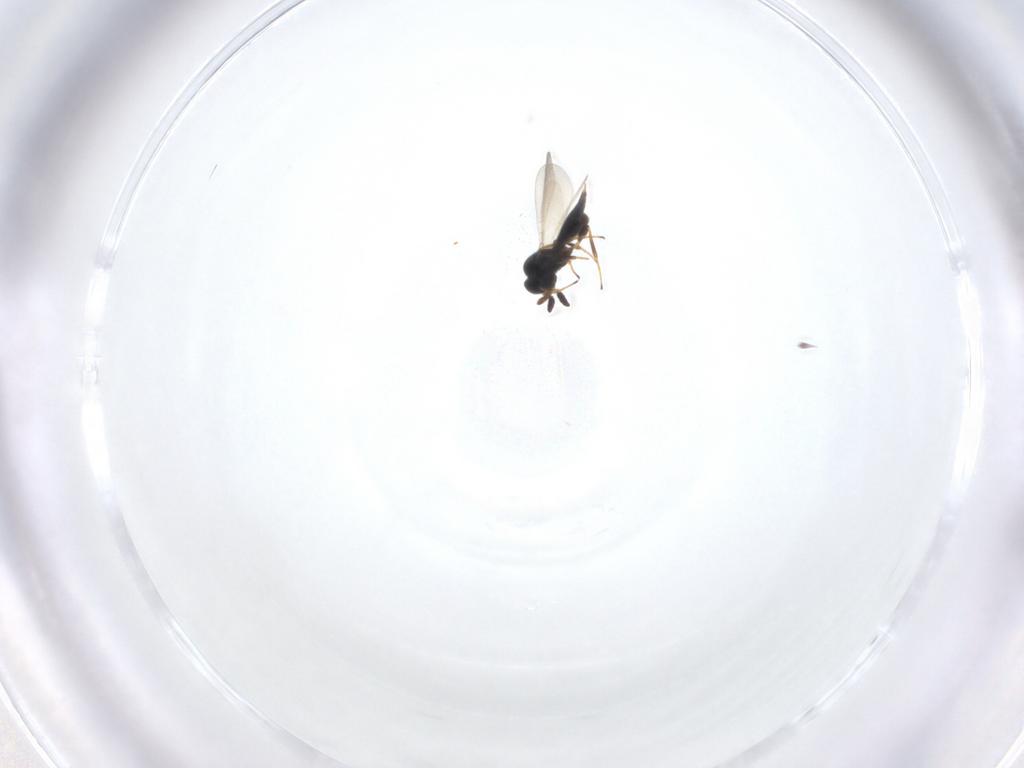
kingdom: Animalia
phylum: Arthropoda
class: Insecta
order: Hymenoptera
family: Platygastridae
